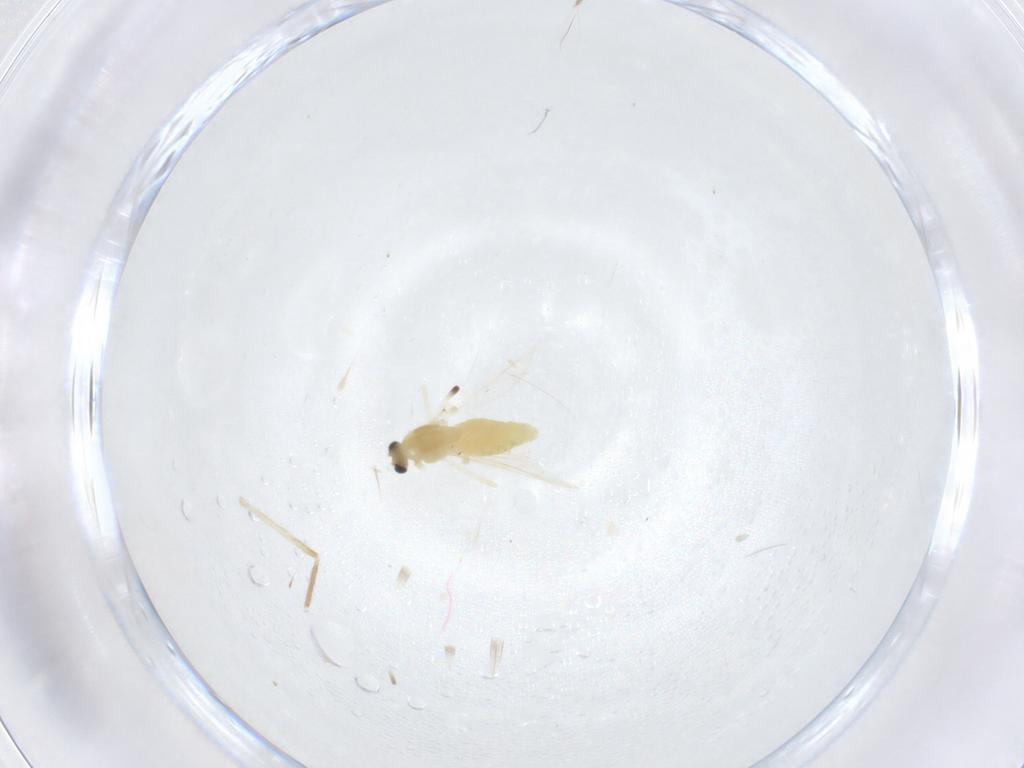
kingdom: Animalia
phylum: Arthropoda
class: Insecta
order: Diptera
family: Chironomidae
